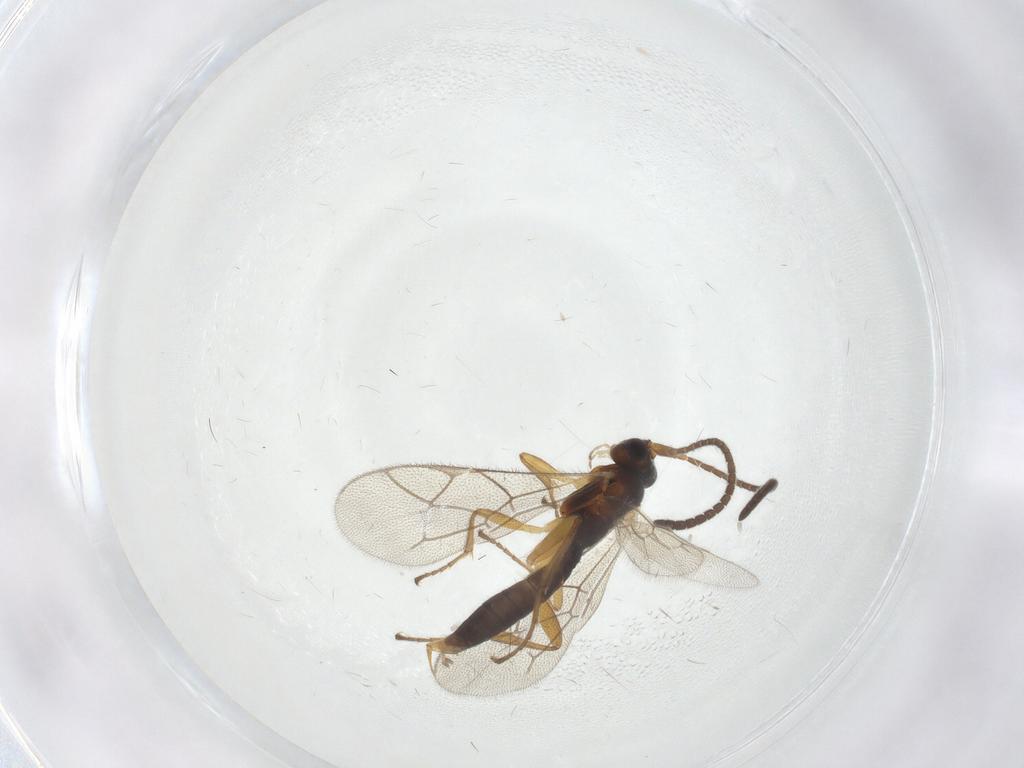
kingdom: Animalia
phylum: Arthropoda
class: Insecta
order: Hymenoptera
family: Ichneumonidae
